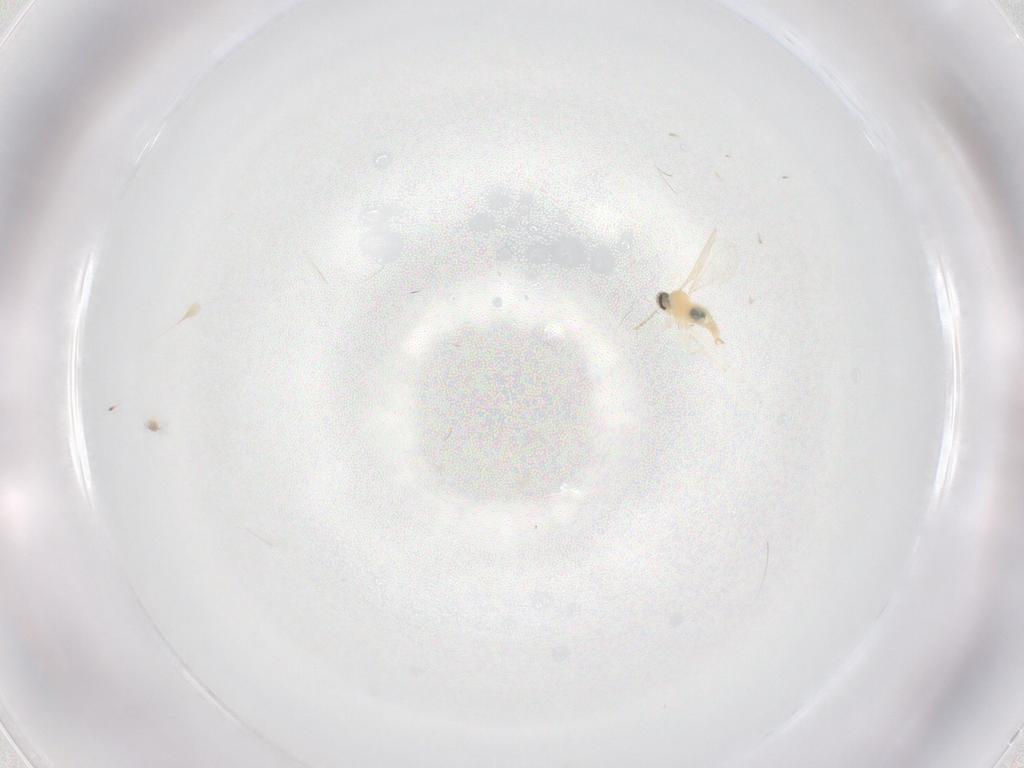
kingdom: Animalia
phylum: Arthropoda
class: Insecta
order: Diptera
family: Cecidomyiidae
